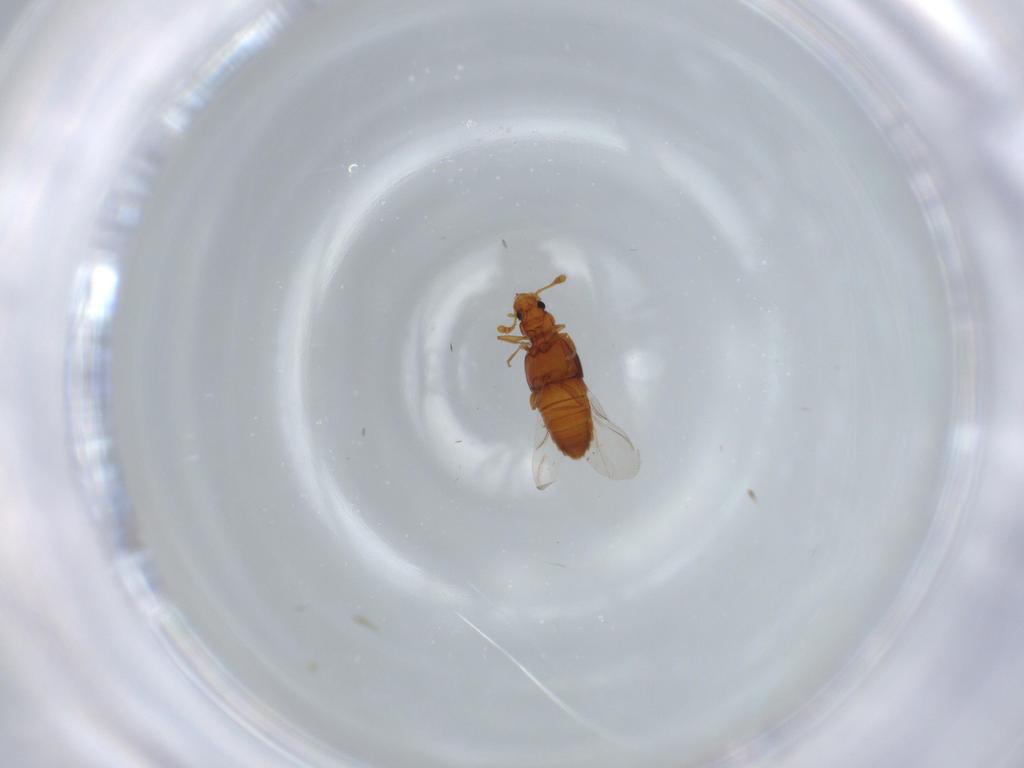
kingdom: Animalia
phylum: Arthropoda
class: Insecta
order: Coleoptera
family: Staphylinidae
